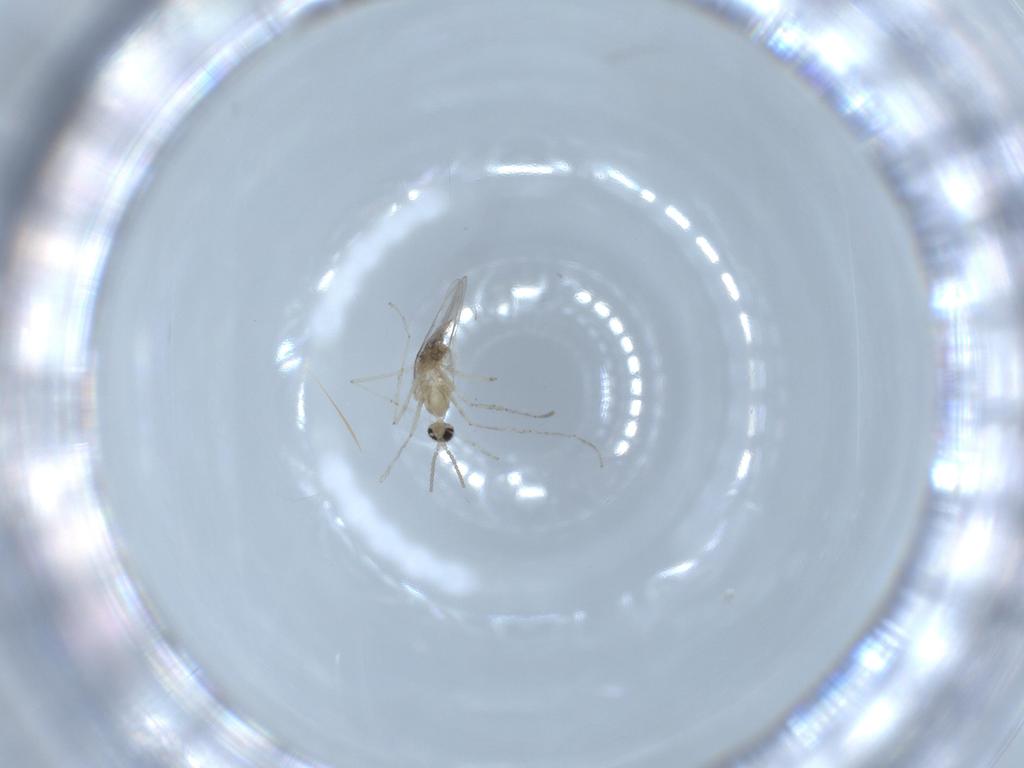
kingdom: Animalia
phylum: Arthropoda
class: Insecta
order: Diptera
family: Cecidomyiidae
